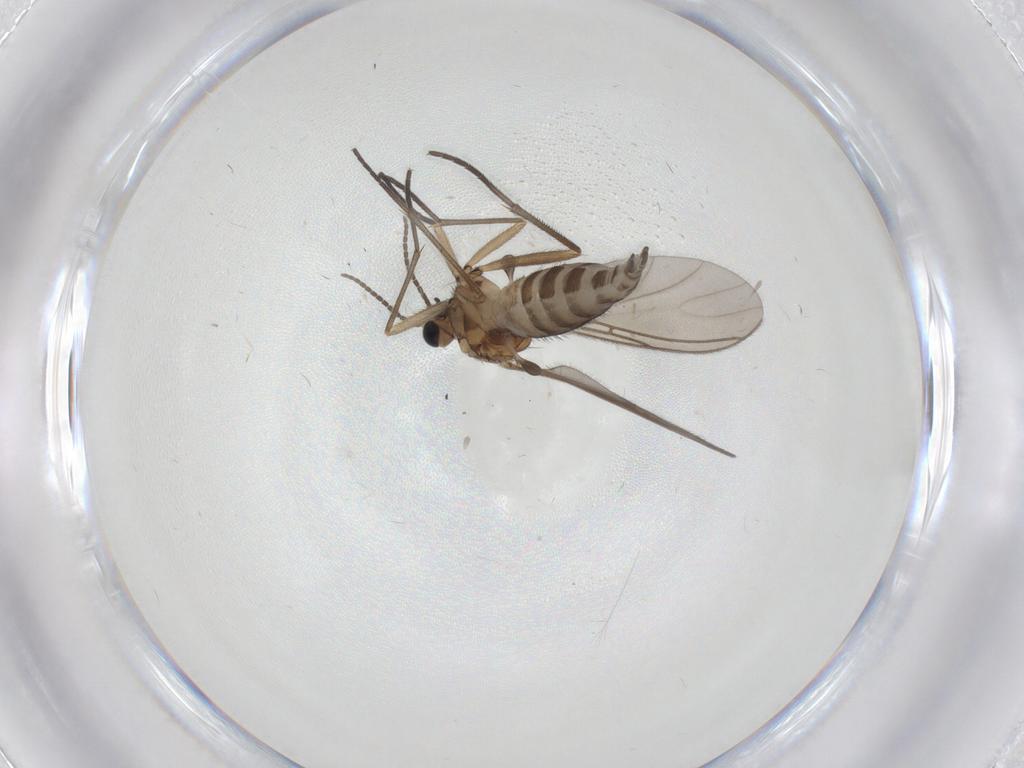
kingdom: Animalia
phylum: Arthropoda
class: Insecta
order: Diptera
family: Sciaridae
